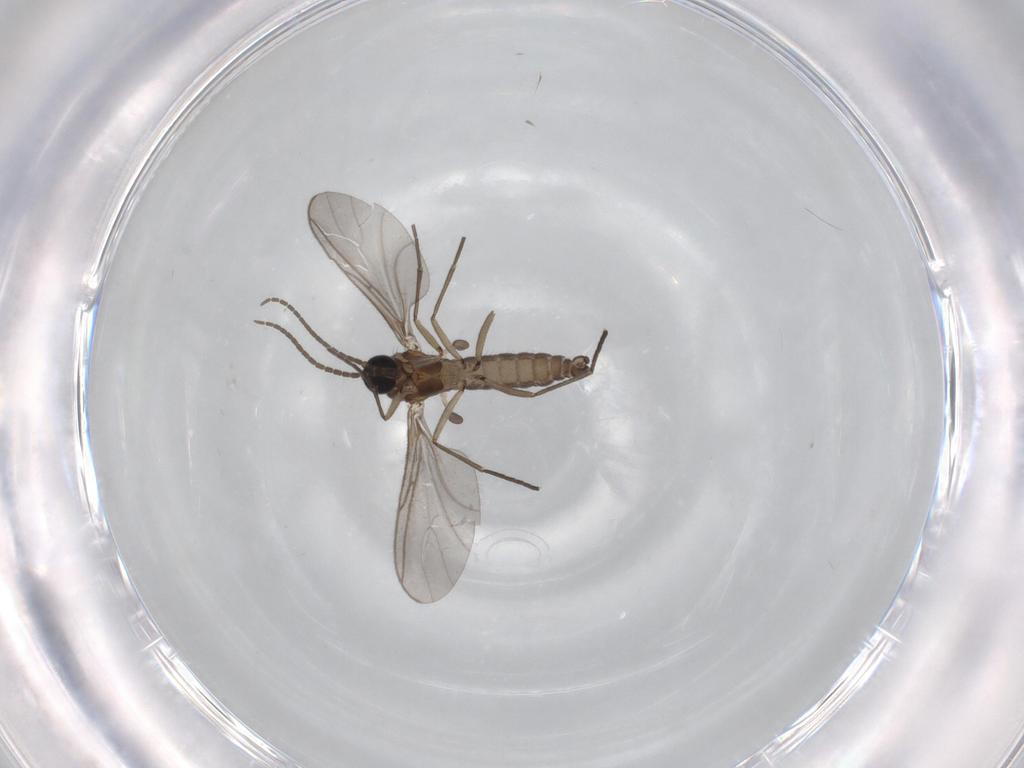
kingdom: Animalia
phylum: Arthropoda
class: Insecta
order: Diptera
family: Sciaridae
